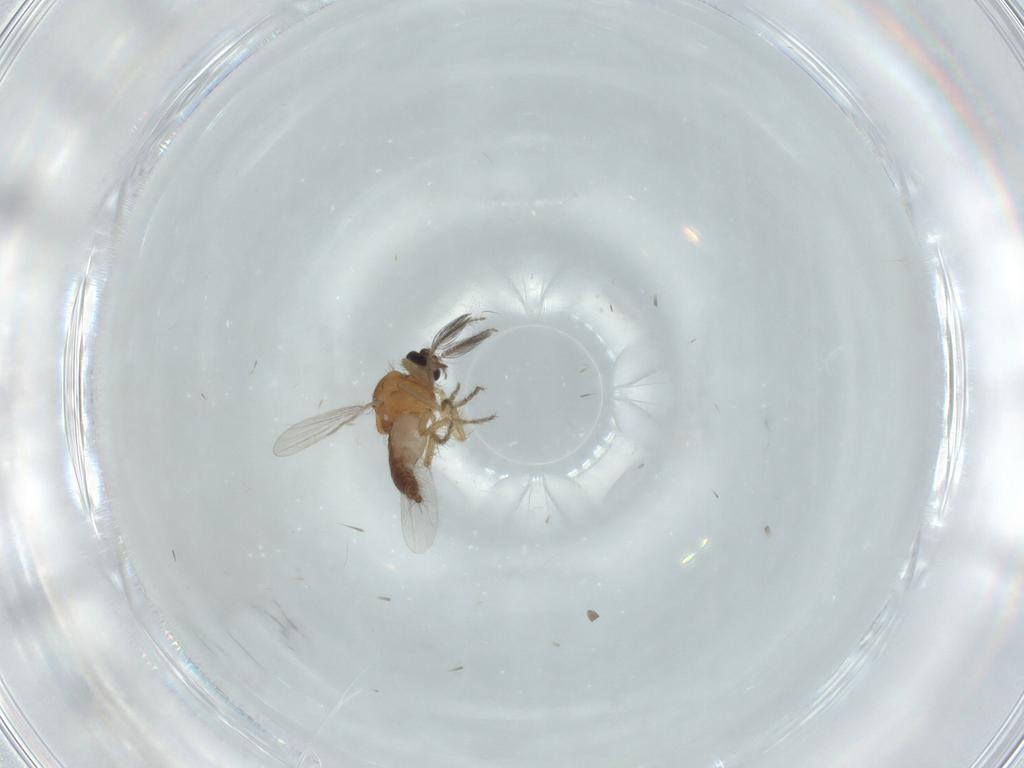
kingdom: Animalia
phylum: Arthropoda
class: Insecta
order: Diptera
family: Ceratopogonidae
